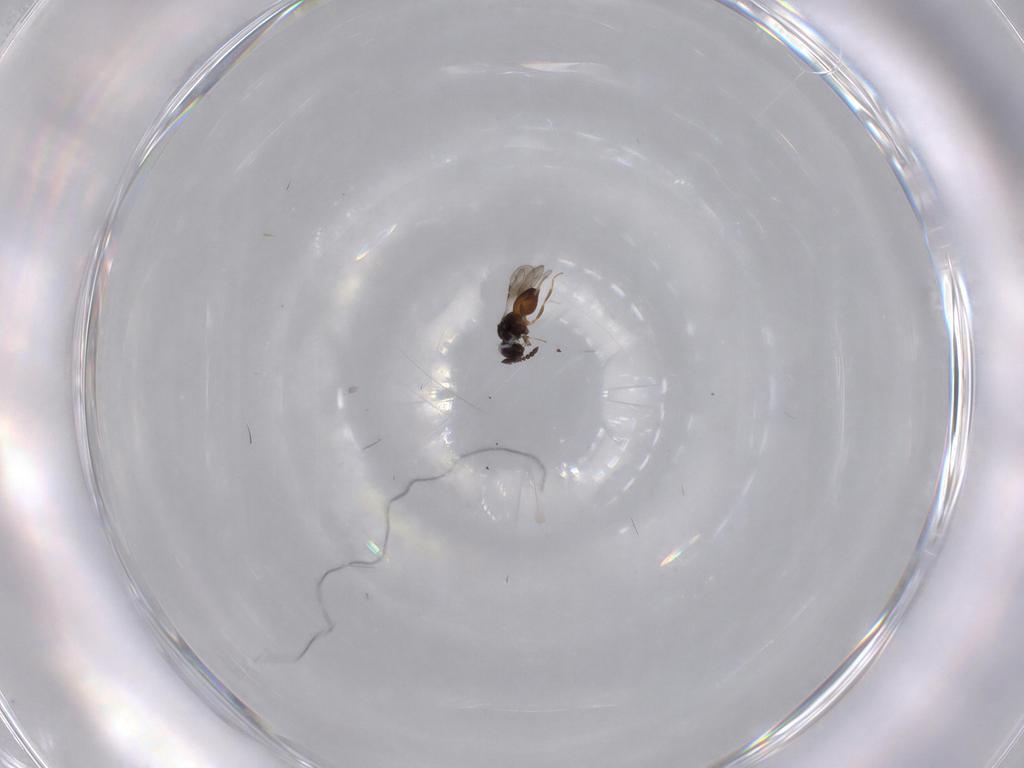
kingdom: Animalia
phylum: Arthropoda
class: Insecta
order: Hymenoptera
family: Ceraphronidae
